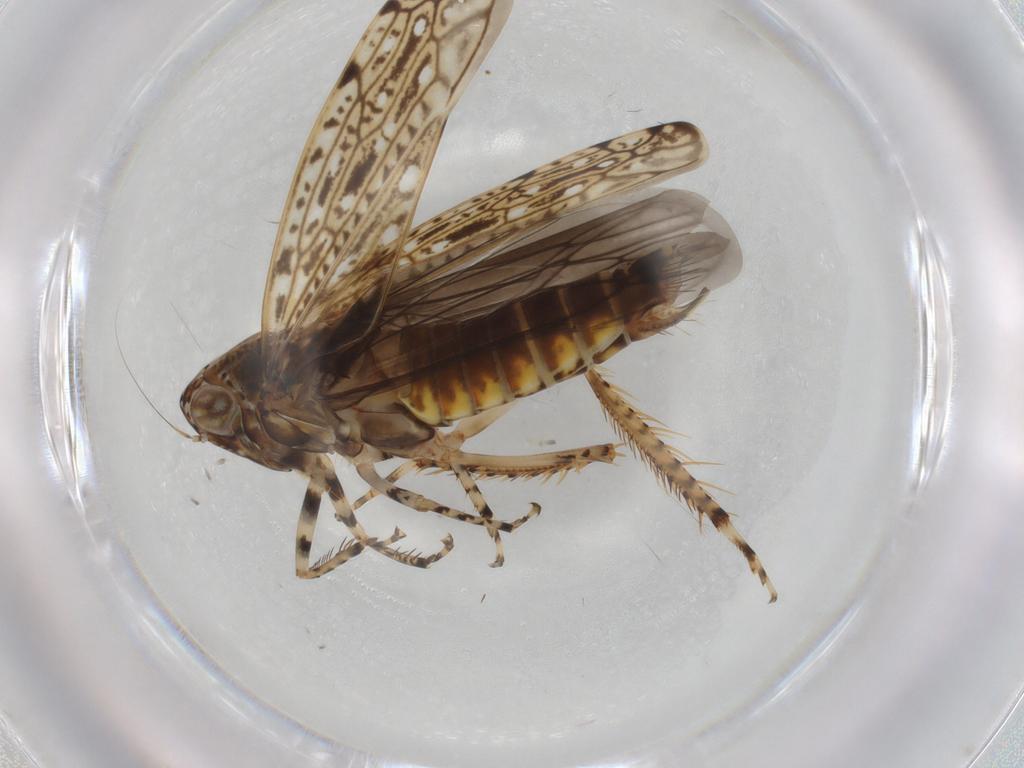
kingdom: Animalia
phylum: Arthropoda
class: Insecta
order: Hemiptera
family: Cicadellidae
